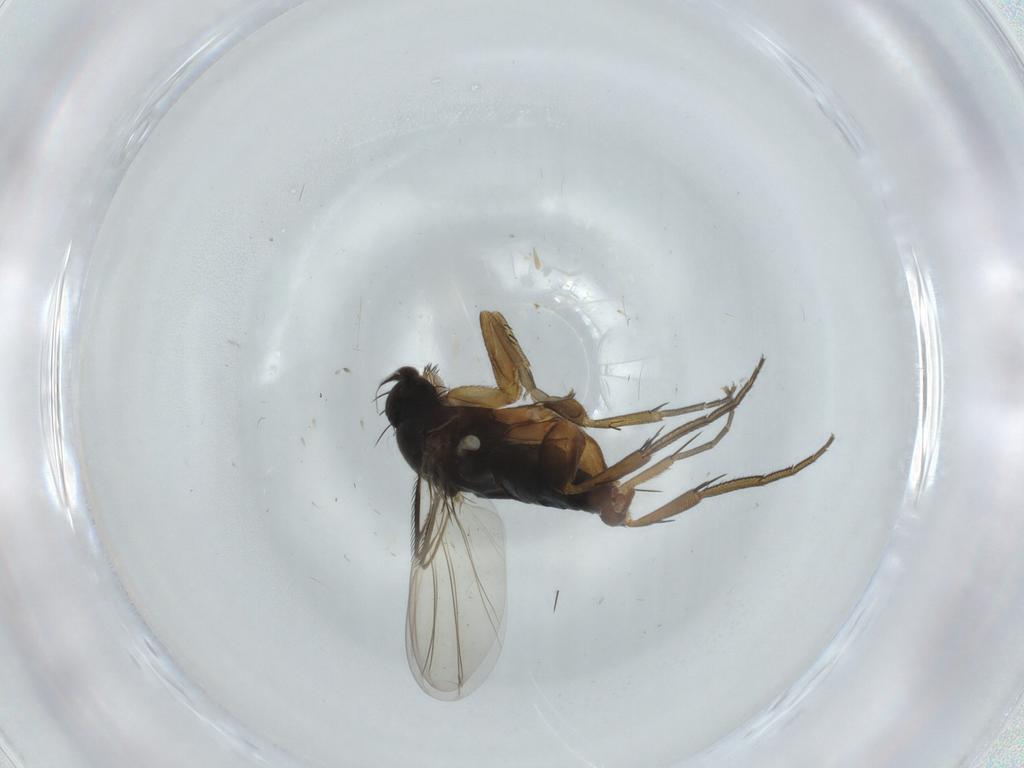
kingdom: Animalia
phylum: Arthropoda
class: Insecta
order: Diptera
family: Phoridae
